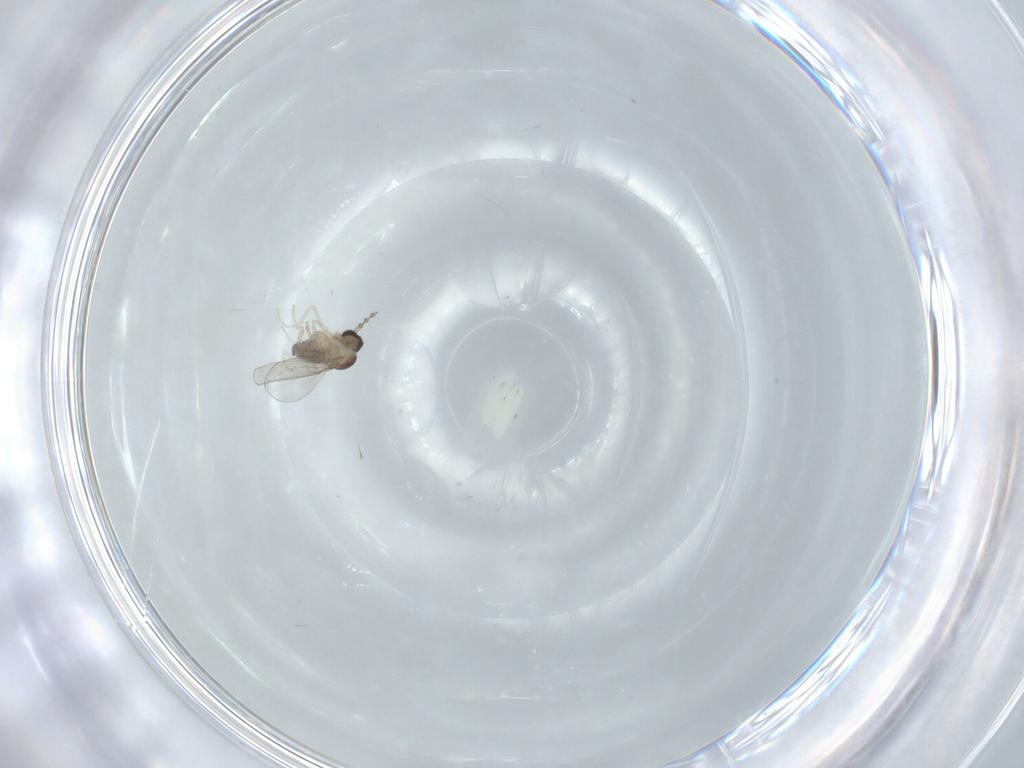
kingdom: Animalia
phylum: Arthropoda
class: Insecta
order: Diptera
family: Cecidomyiidae
